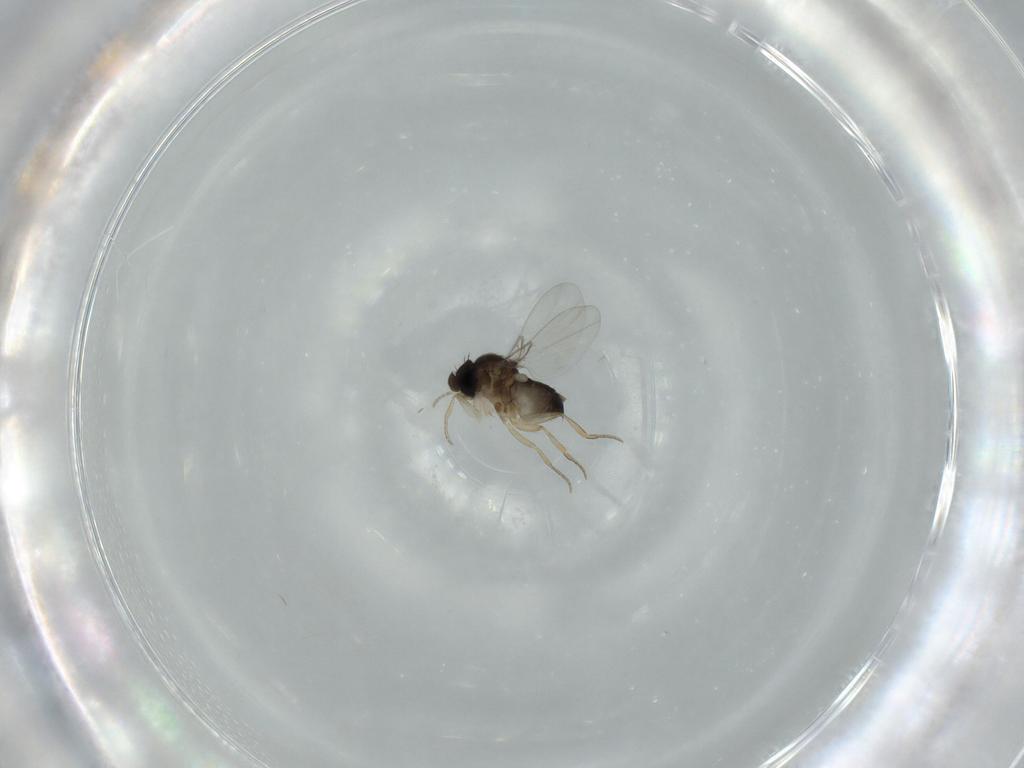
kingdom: Animalia
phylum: Arthropoda
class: Insecta
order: Diptera
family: Phoridae
